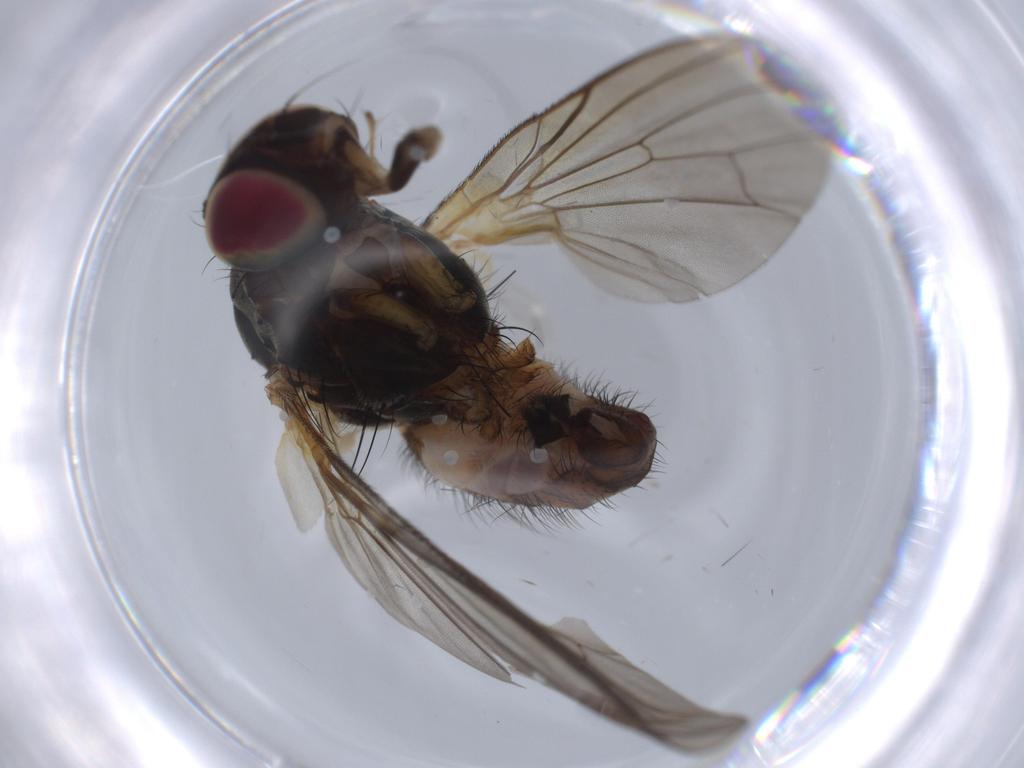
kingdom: Animalia
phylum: Arthropoda
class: Insecta
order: Diptera
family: Anthomyiidae
